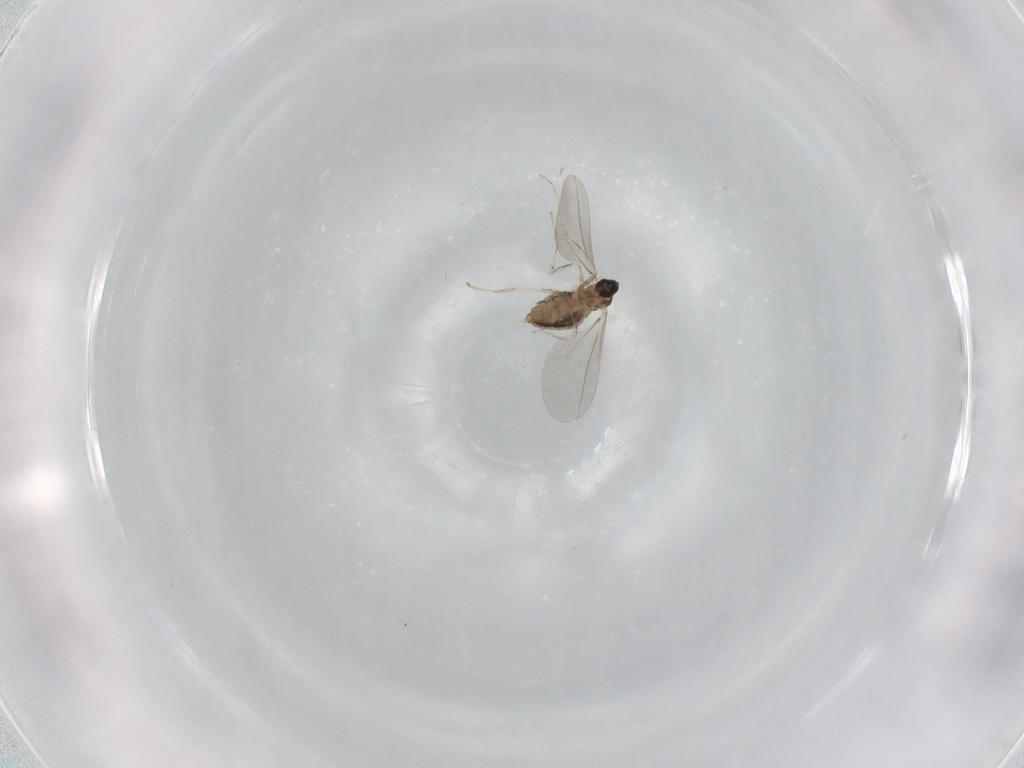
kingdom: Animalia
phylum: Arthropoda
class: Insecta
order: Diptera
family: Cecidomyiidae
